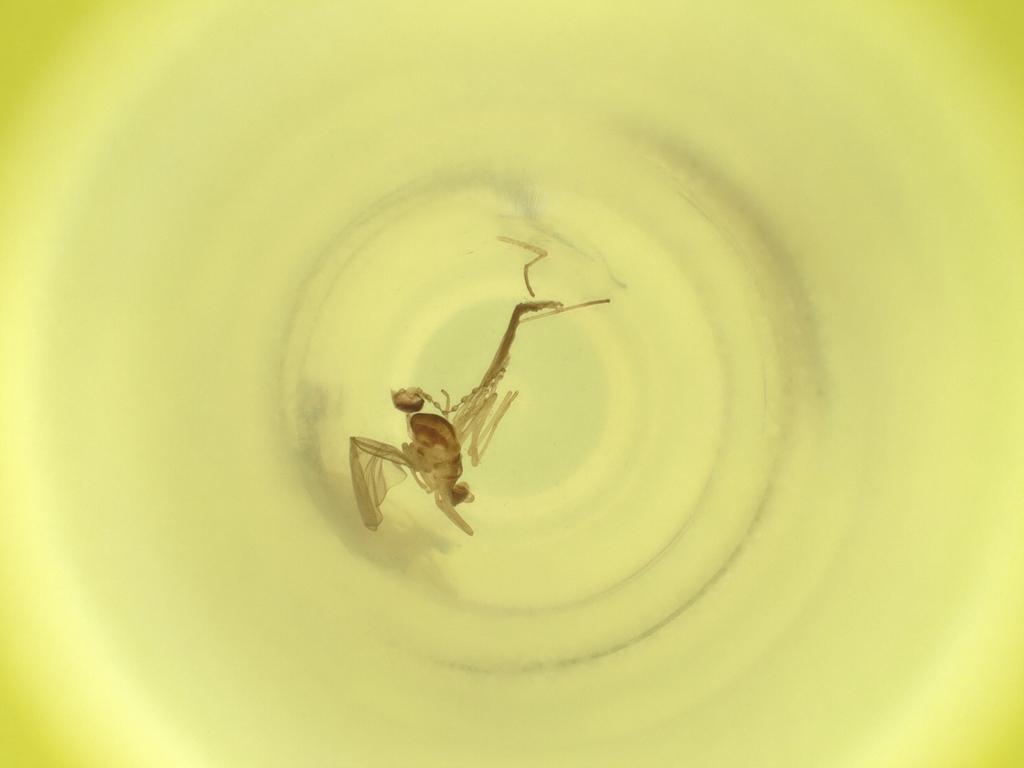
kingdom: Animalia
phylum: Arthropoda
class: Insecta
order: Diptera
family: Cecidomyiidae
